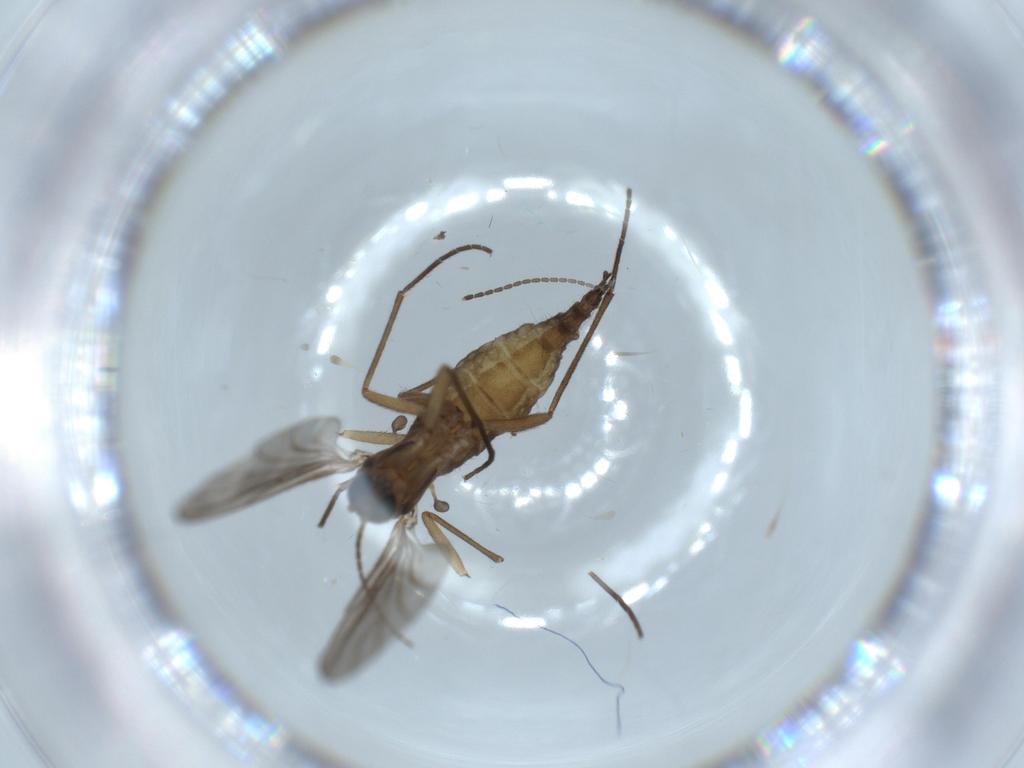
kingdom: Animalia
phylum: Arthropoda
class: Insecta
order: Diptera
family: Sciaridae
